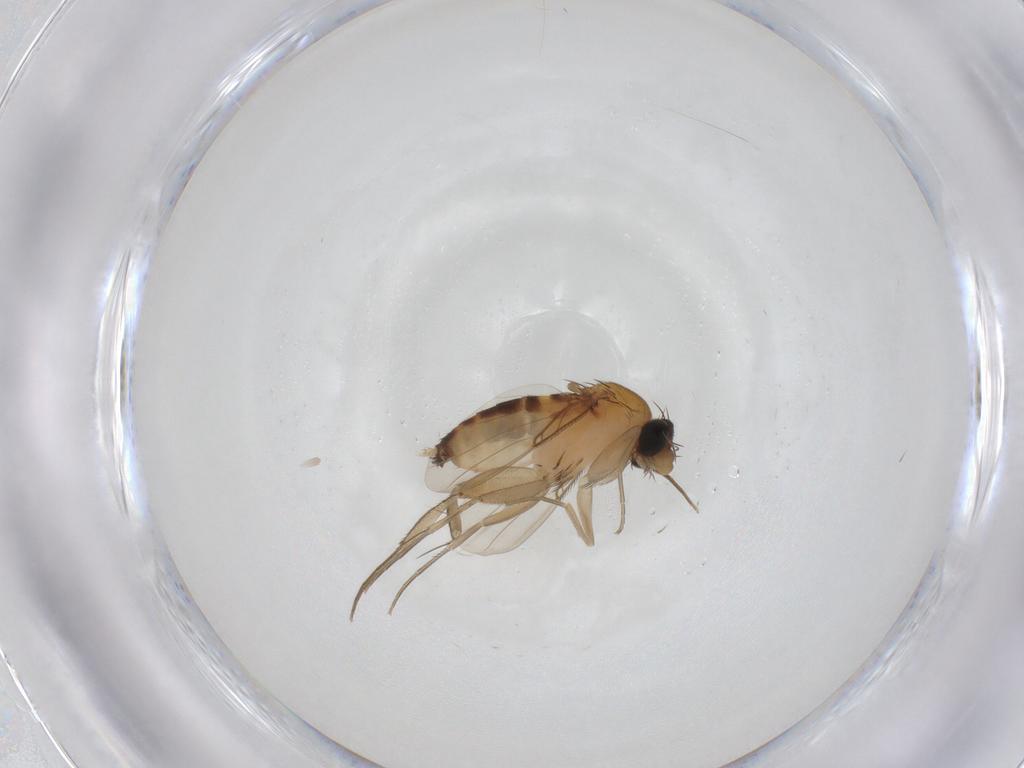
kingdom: Animalia
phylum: Arthropoda
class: Insecta
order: Diptera
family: Phoridae
